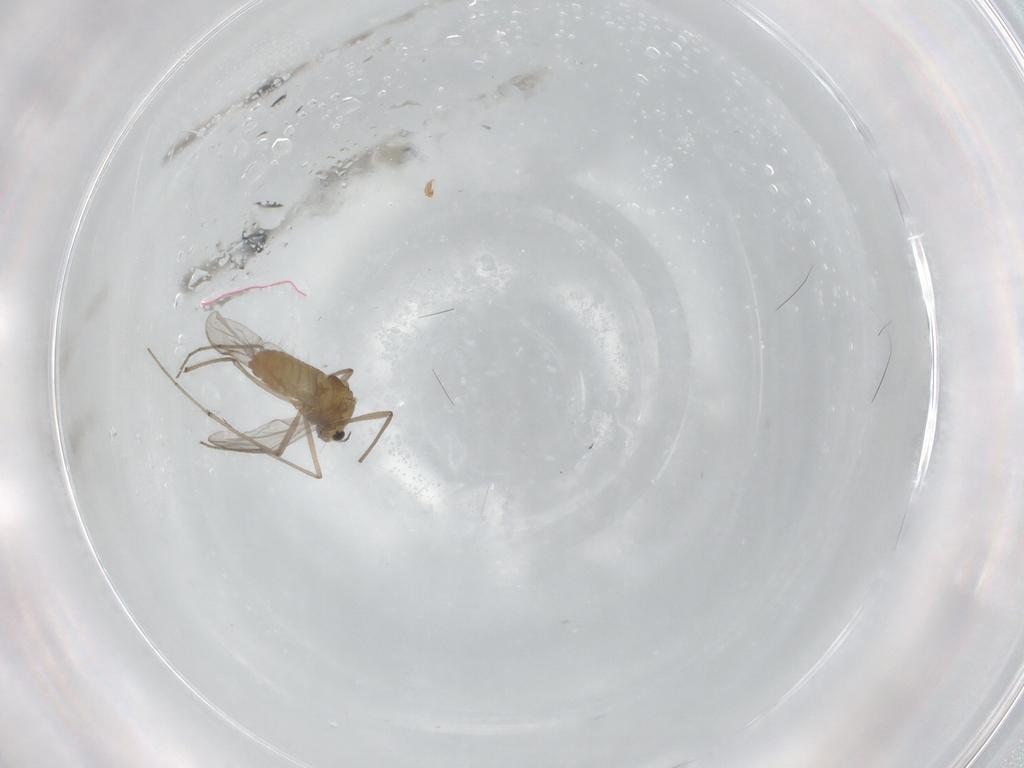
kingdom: Animalia
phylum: Arthropoda
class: Insecta
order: Diptera
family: Chironomidae
